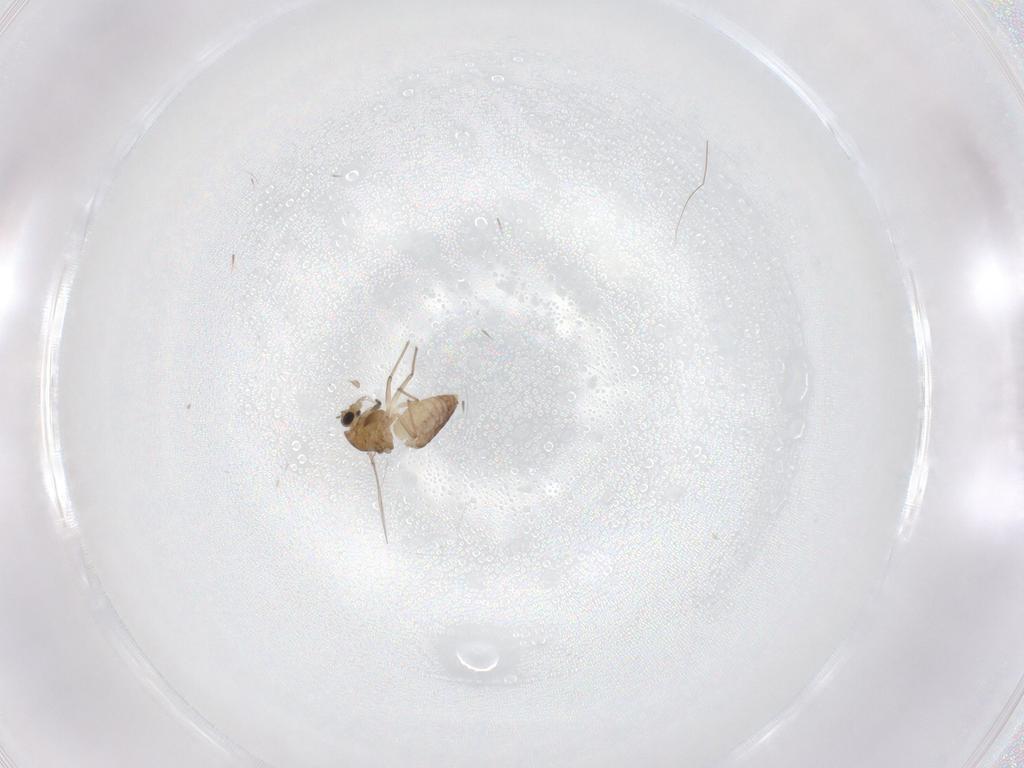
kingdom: Animalia
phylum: Arthropoda
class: Insecta
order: Diptera
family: Chironomidae
